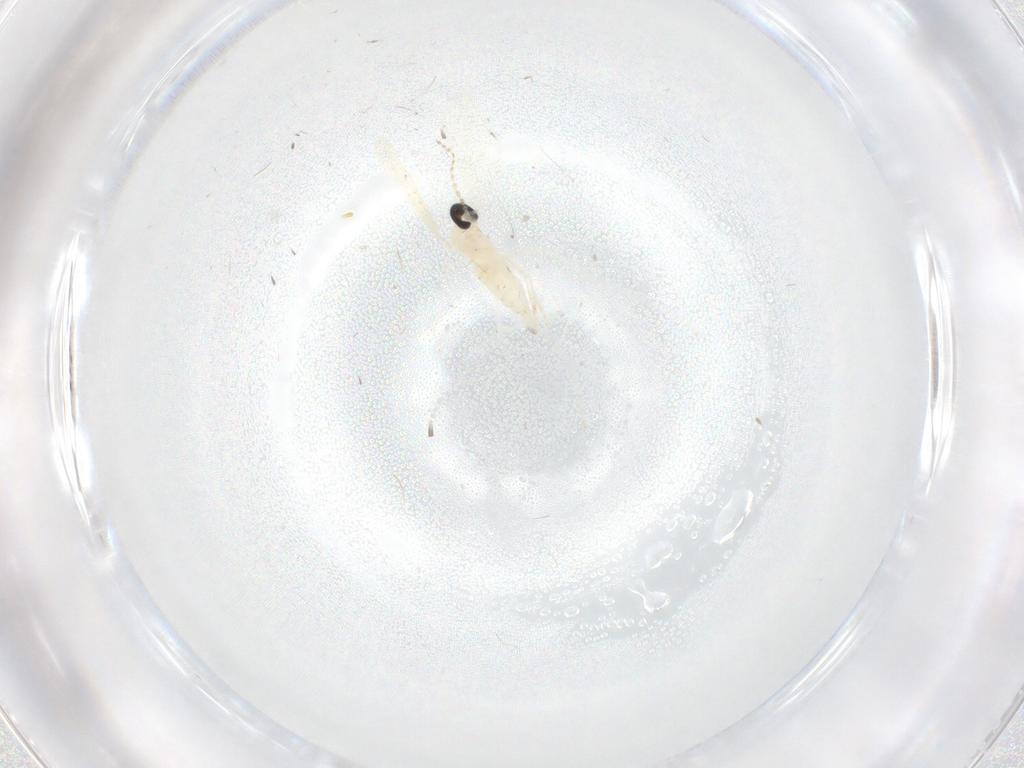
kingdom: Animalia
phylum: Arthropoda
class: Insecta
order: Diptera
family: Cecidomyiidae
